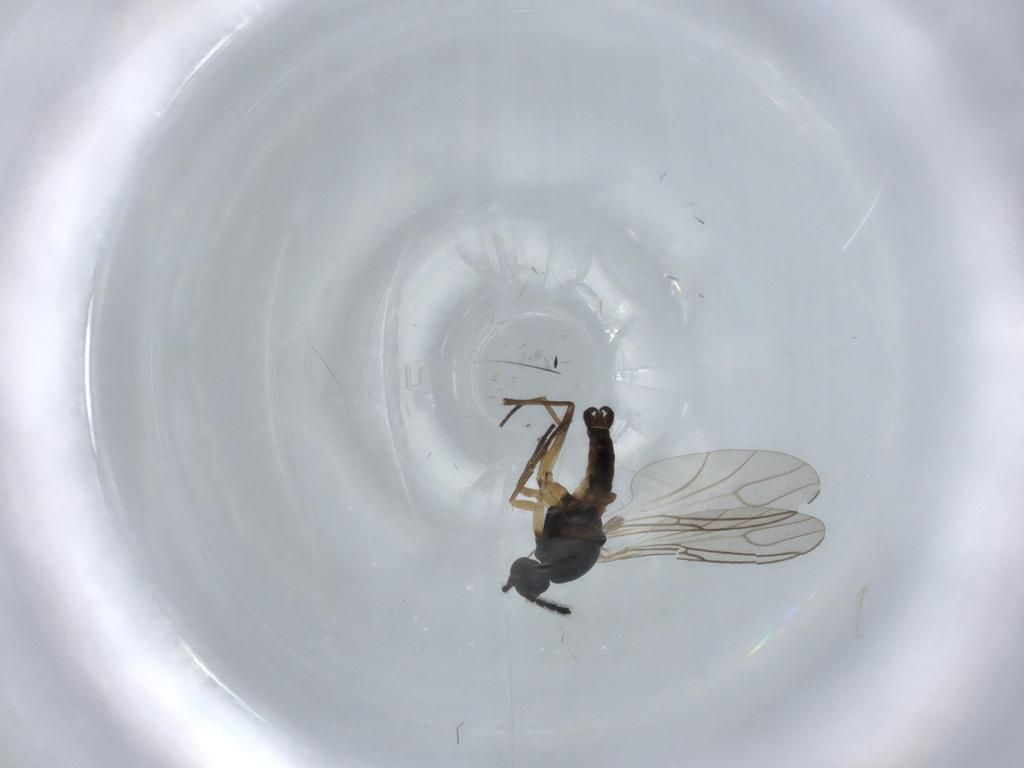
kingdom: Animalia
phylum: Arthropoda
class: Insecta
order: Diptera
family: Sciaridae
